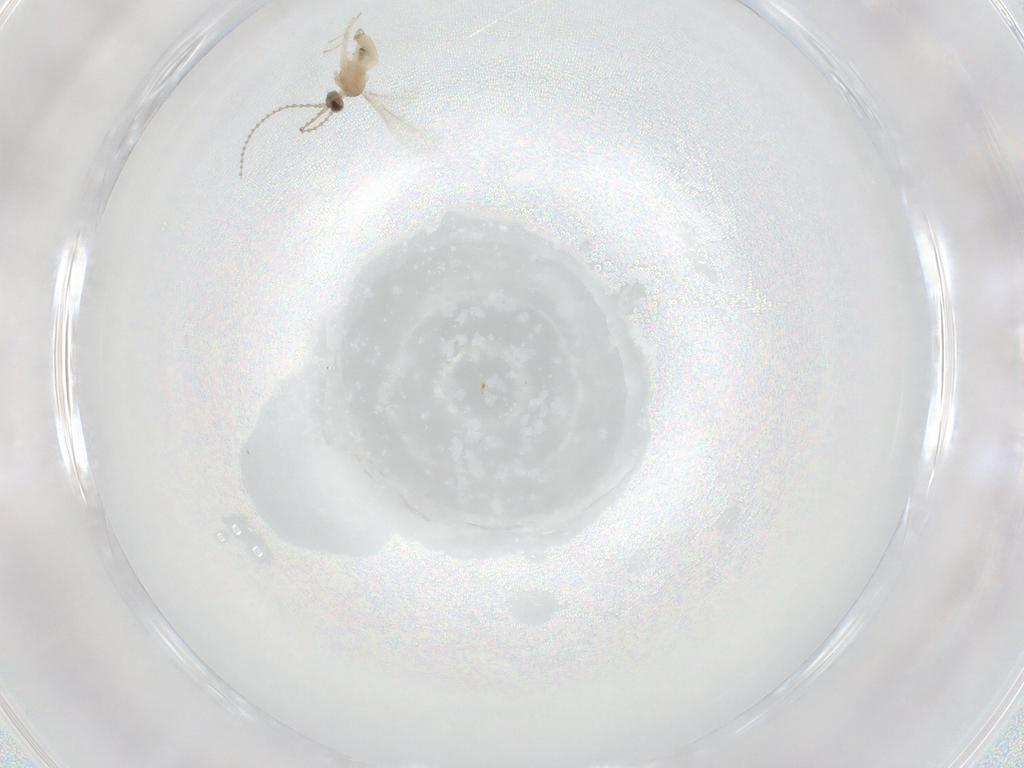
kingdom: Animalia
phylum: Arthropoda
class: Insecta
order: Diptera
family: Cecidomyiidae
